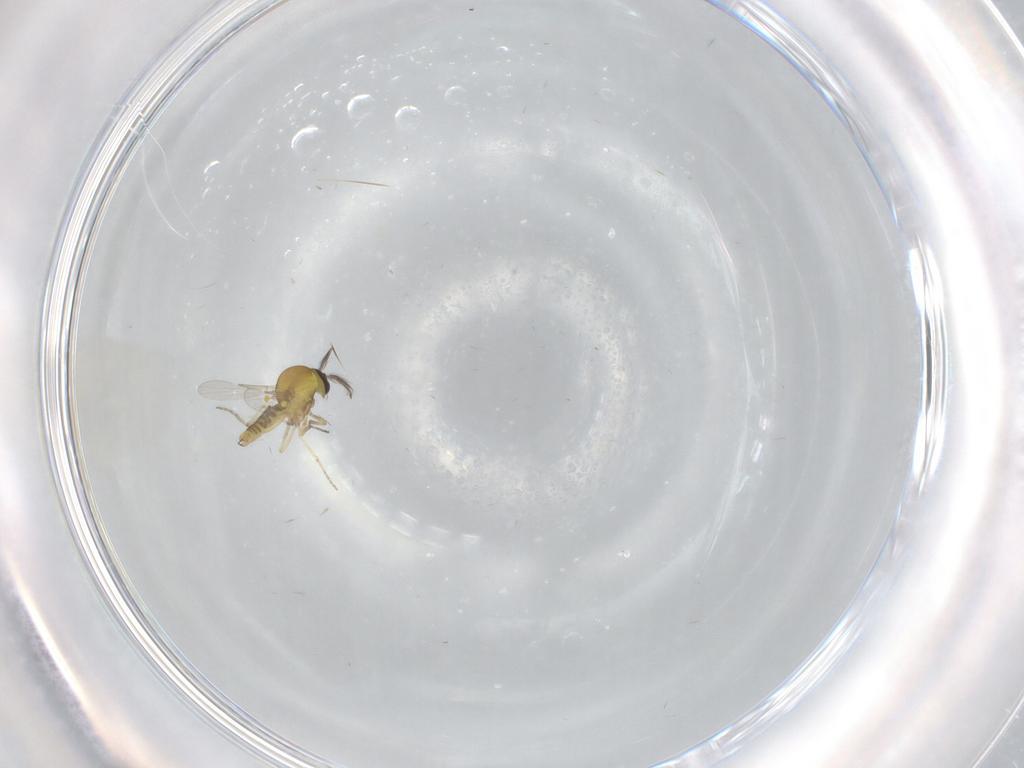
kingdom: Animalia
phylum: Arthropoda
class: Insecta
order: Diptera
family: Ceratopogonidae
